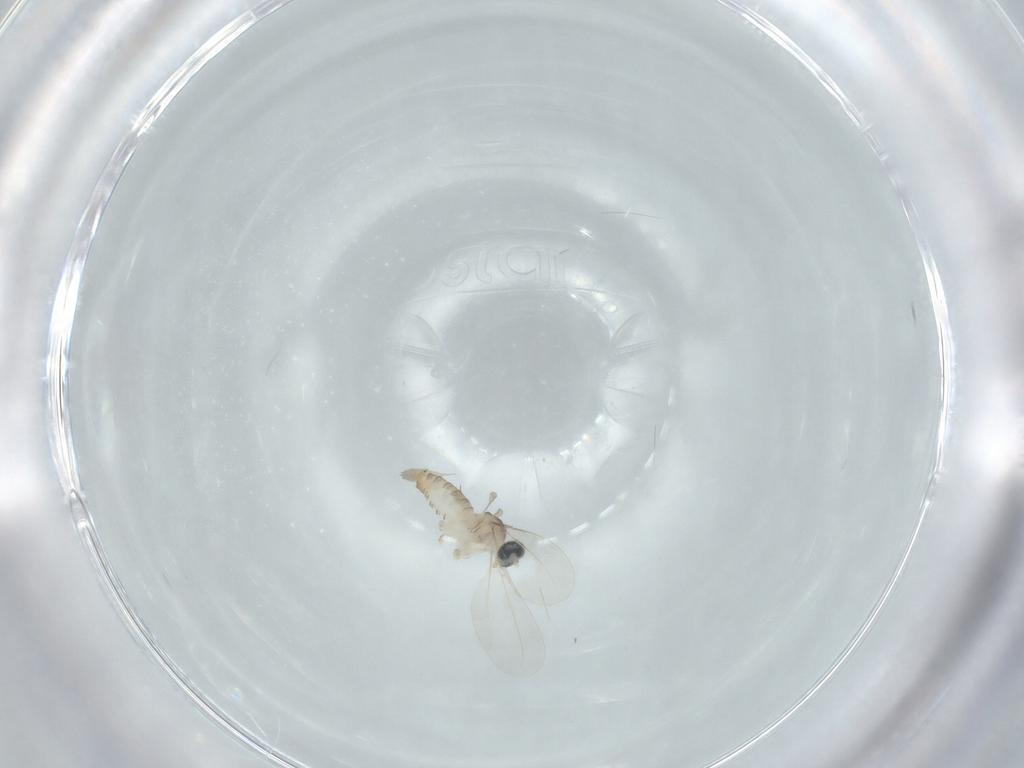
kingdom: Animalia
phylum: Arthropoda
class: Insecta
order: Diptera
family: Cecidomyiidae
